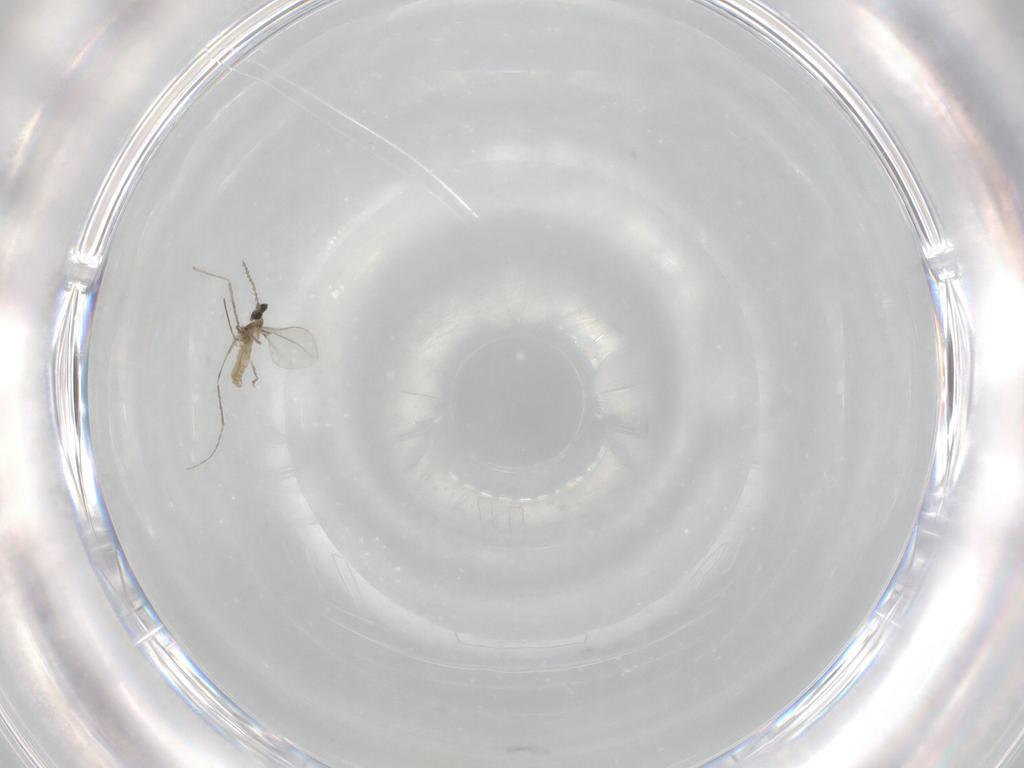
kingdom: Animalia
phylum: Arthropoda
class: Insecta
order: Diptera
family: Cecidomyiidae
